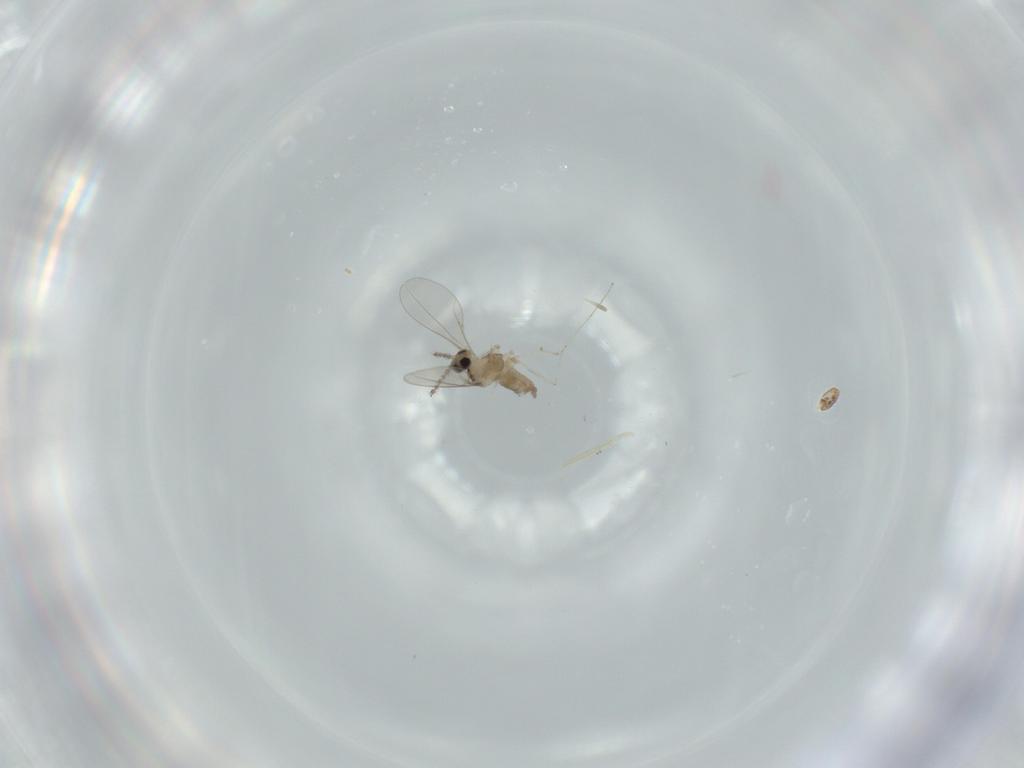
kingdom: Animalia
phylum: Arthropoda
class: Insecta
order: Diptera
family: Cecidomyiidae
